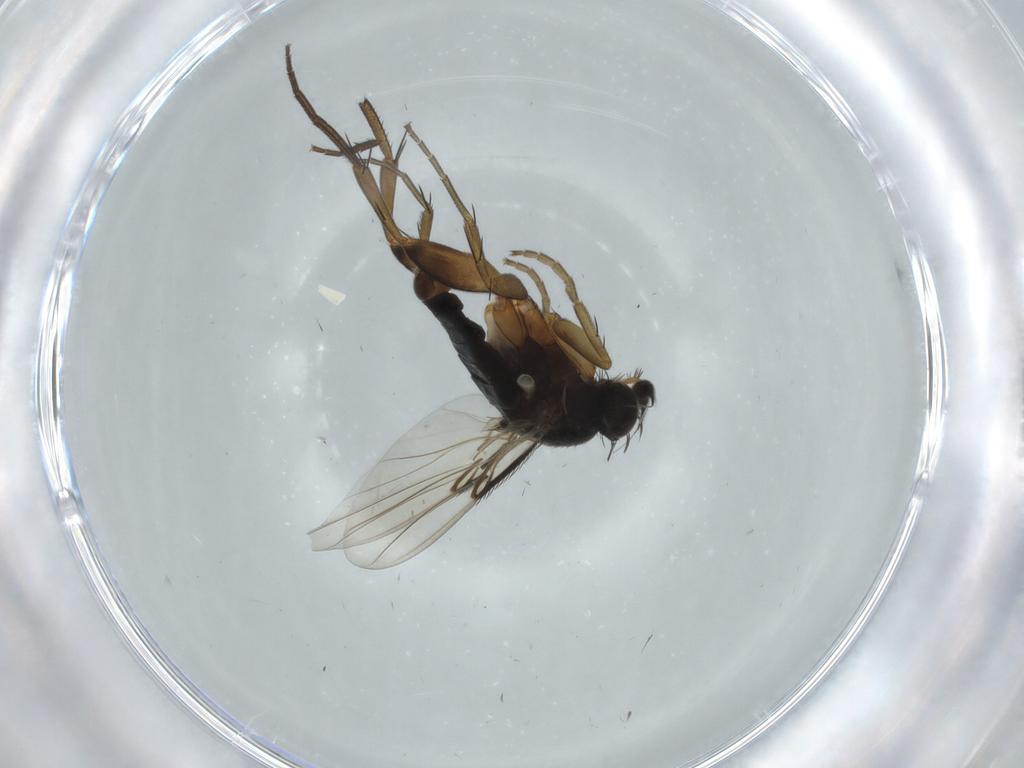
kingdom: Animalia
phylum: Arthropoda
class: Insecta
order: Diptera
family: Phoridae
